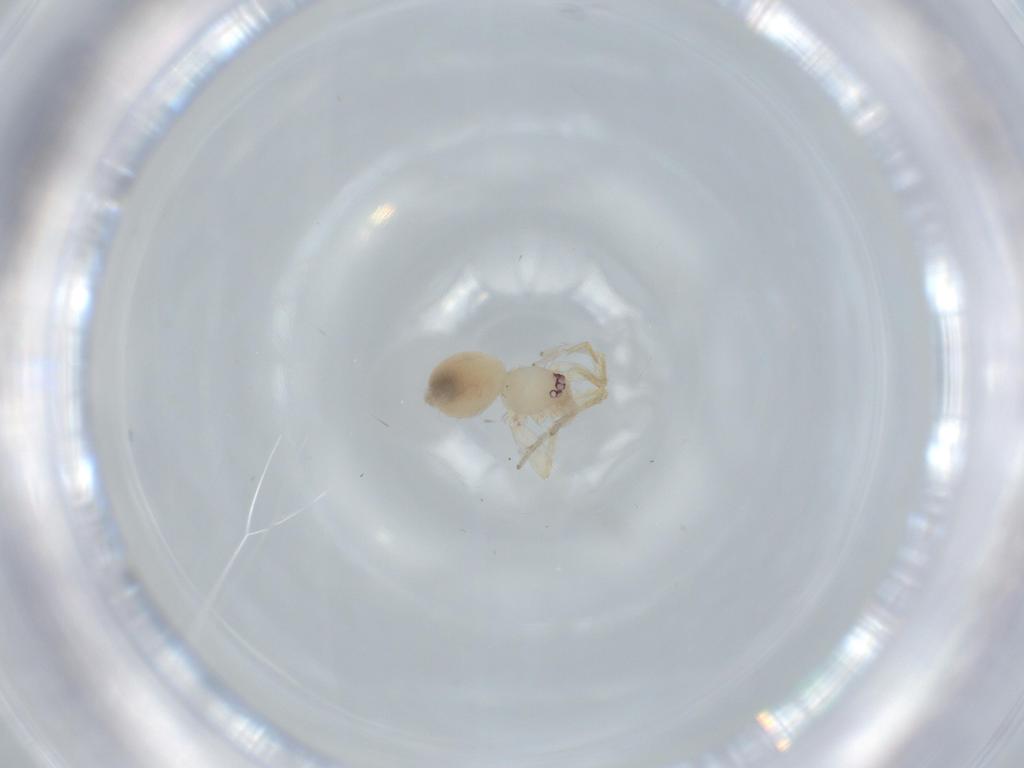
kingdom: Animalia
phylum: Arthropoda
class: Arachnida
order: Araneae
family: Oonopidae
